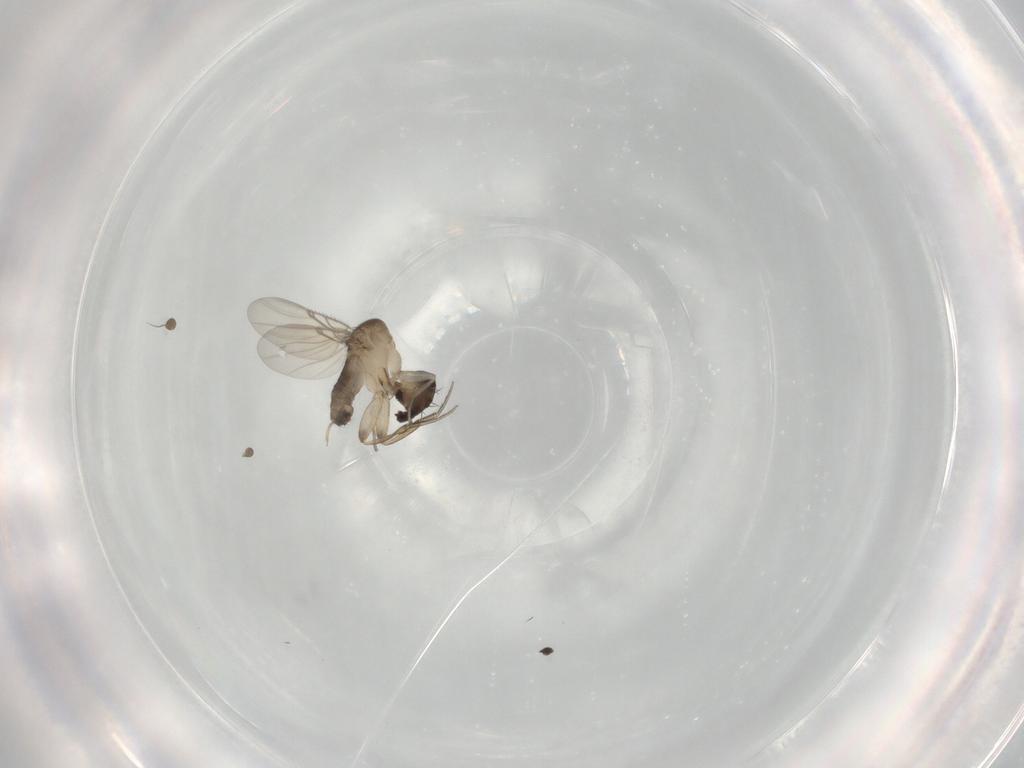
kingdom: Animalia
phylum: Arthropoda
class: Insecta
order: Diptera
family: Phoridae
